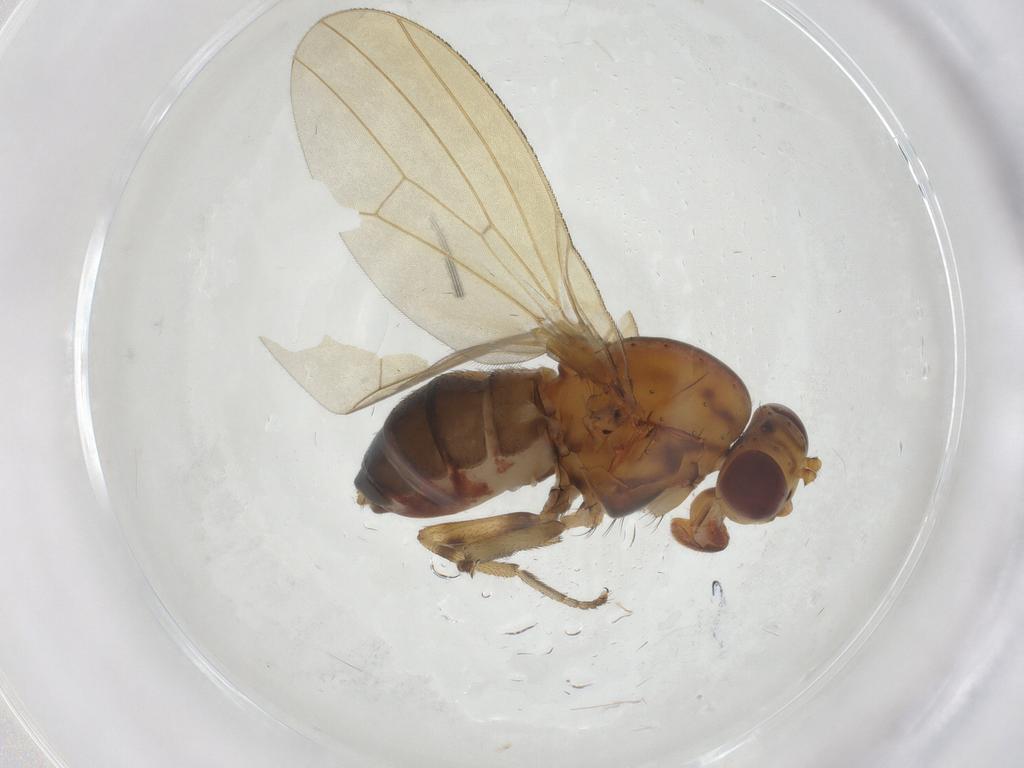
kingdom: Animalia
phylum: Arthropoda
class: Insecta
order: Diptera
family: Lauxaniidae
